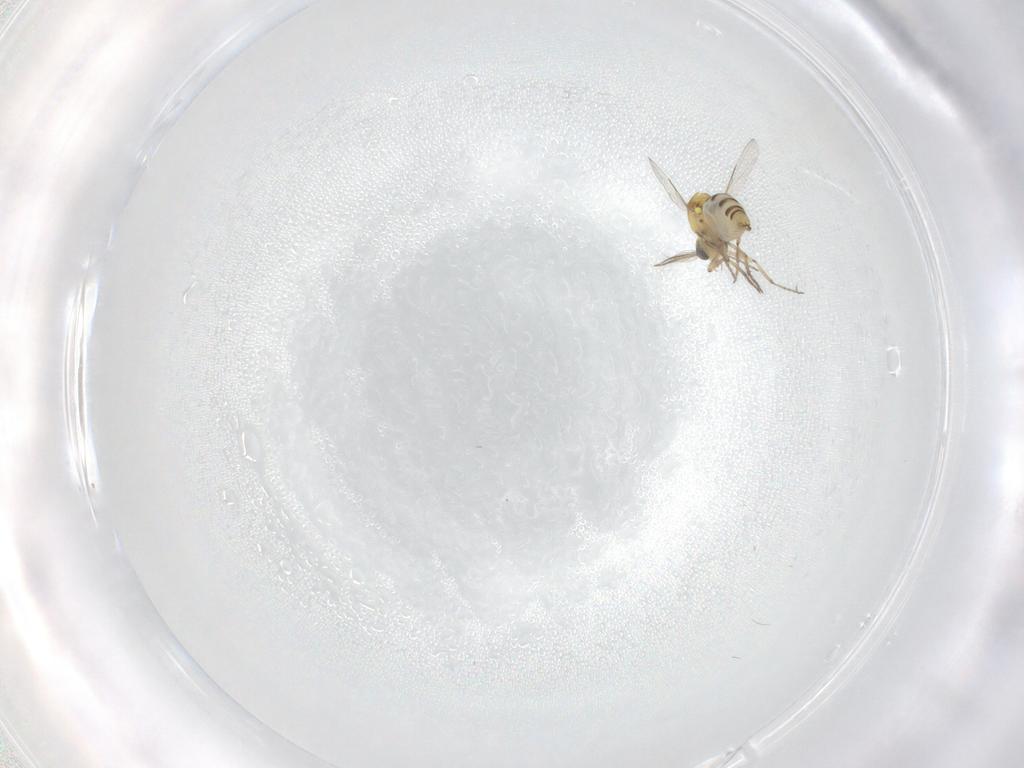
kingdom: Animalia
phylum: Arthropoda
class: Insecta
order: Diptera
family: Ceratopogonidae
